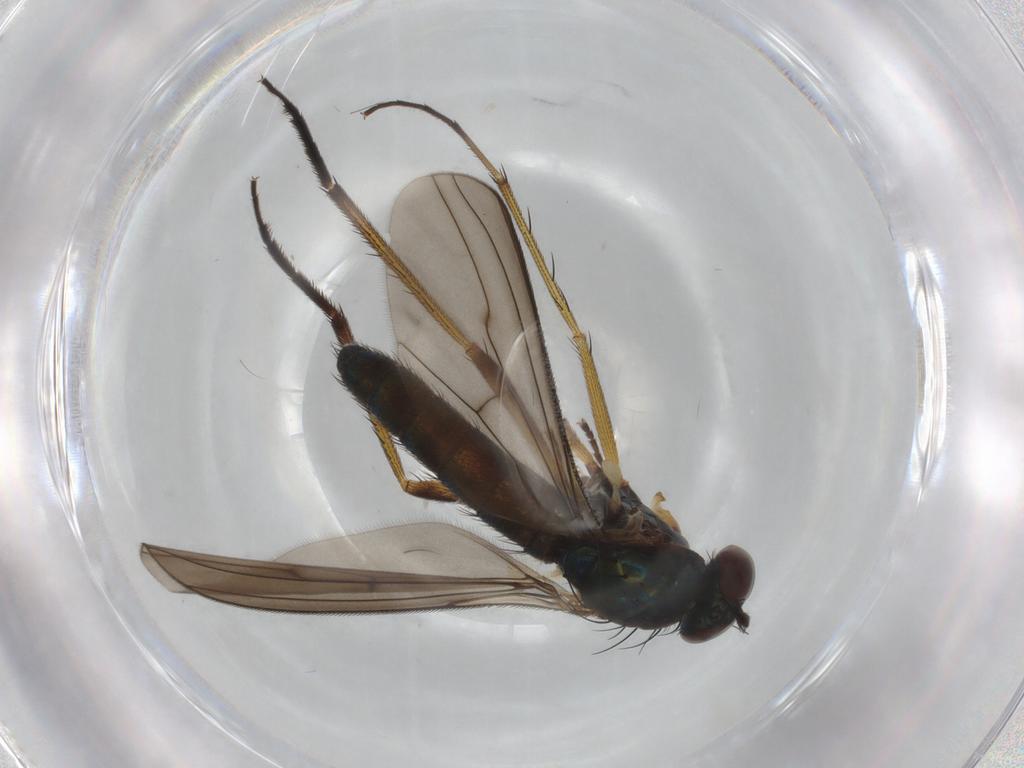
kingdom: Animalia
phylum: Arthropoda
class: Insecta
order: Diptera
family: Dolichopodidae
